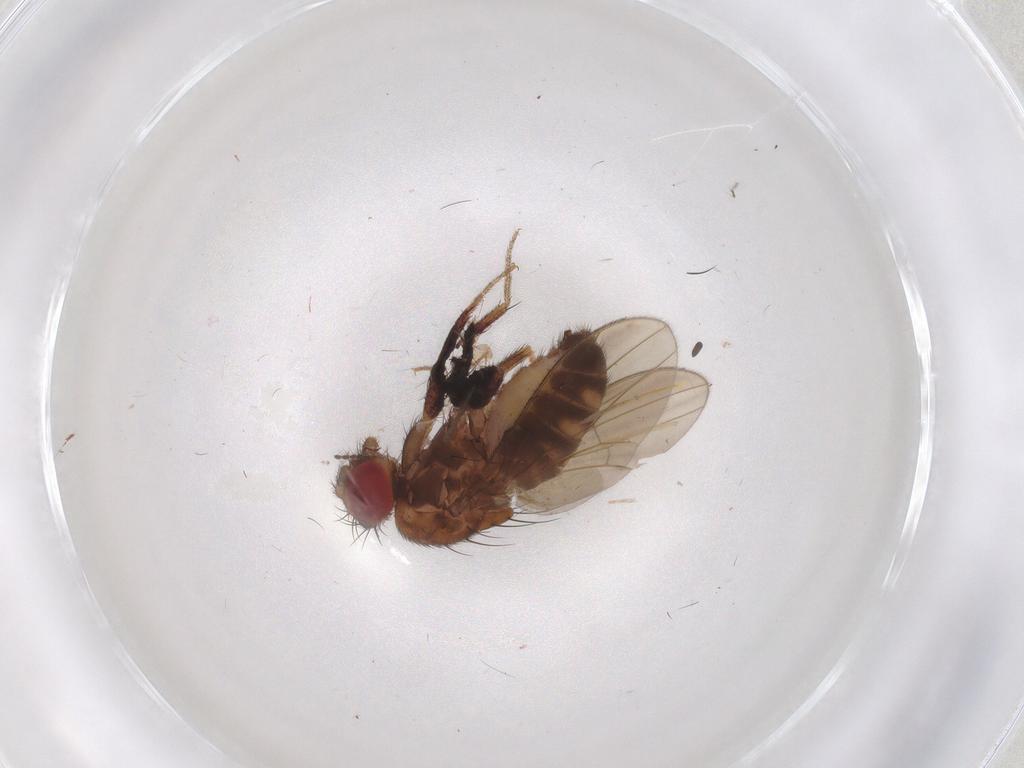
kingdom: Animalia
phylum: Arthropoda
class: Insecta
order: Diptera
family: Drosophilidae
